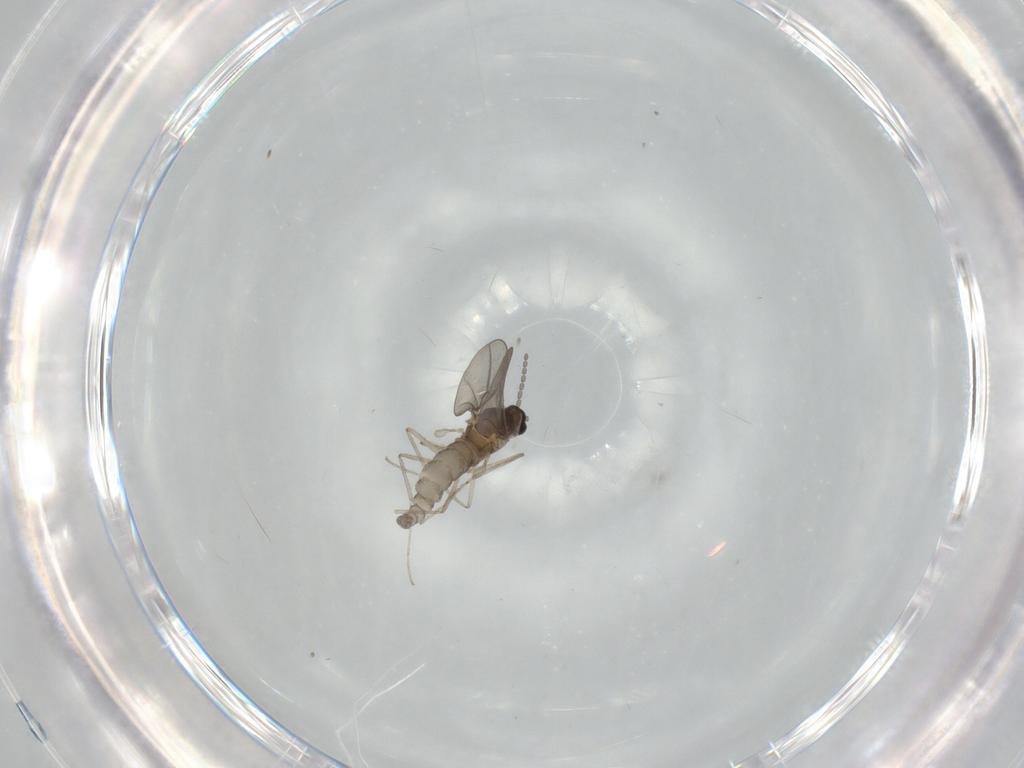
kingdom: Animalia
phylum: Arthropoda
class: Insecta
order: Diptera
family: Cecidomyiidae
